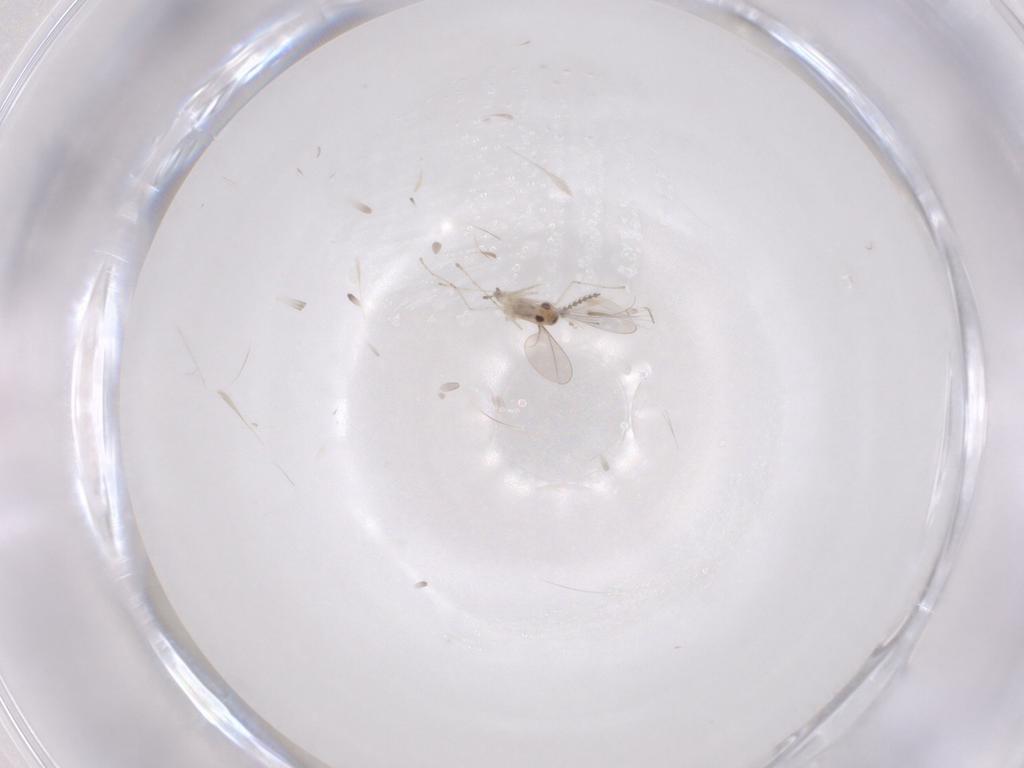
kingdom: Animalia
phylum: Arthropoda
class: Insecta
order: Diptera
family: Cecidomyiidae
